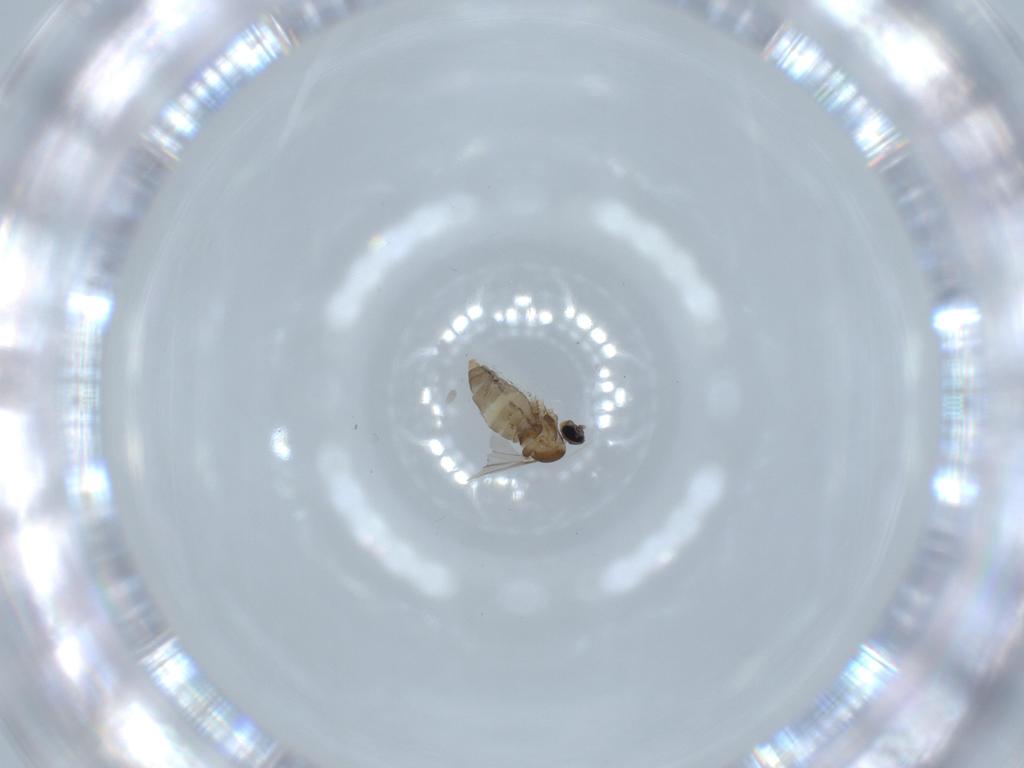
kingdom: Animalia
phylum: Arthropoda
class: Insecta
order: Diptera
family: Cecidomyiidae
